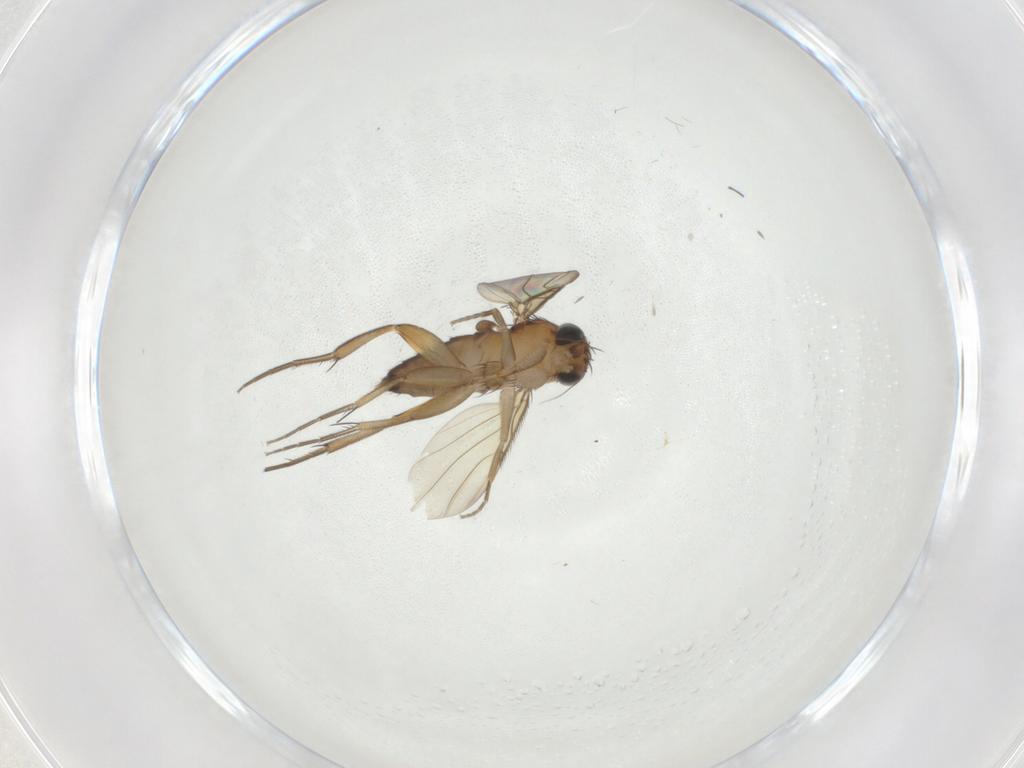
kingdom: Animalia
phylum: Arthropoda
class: Insecta
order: Diptera
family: Phoridae
